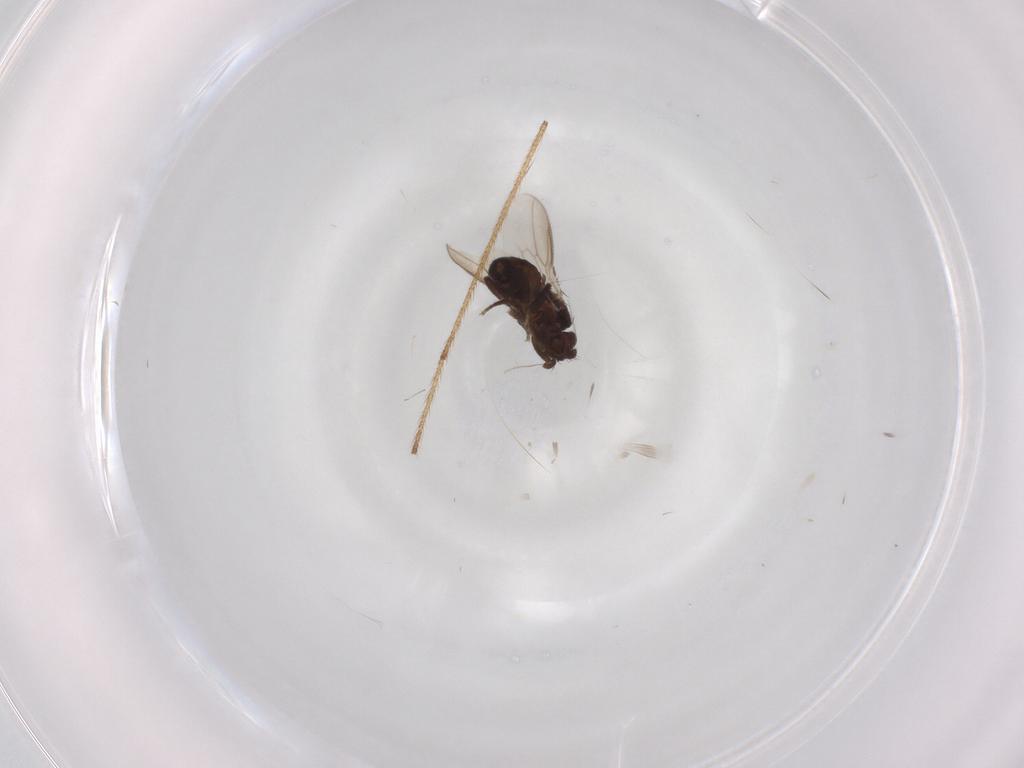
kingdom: Animalia
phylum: Arthropoda
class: Insecta
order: Diptera
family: Sphaeroceridae
